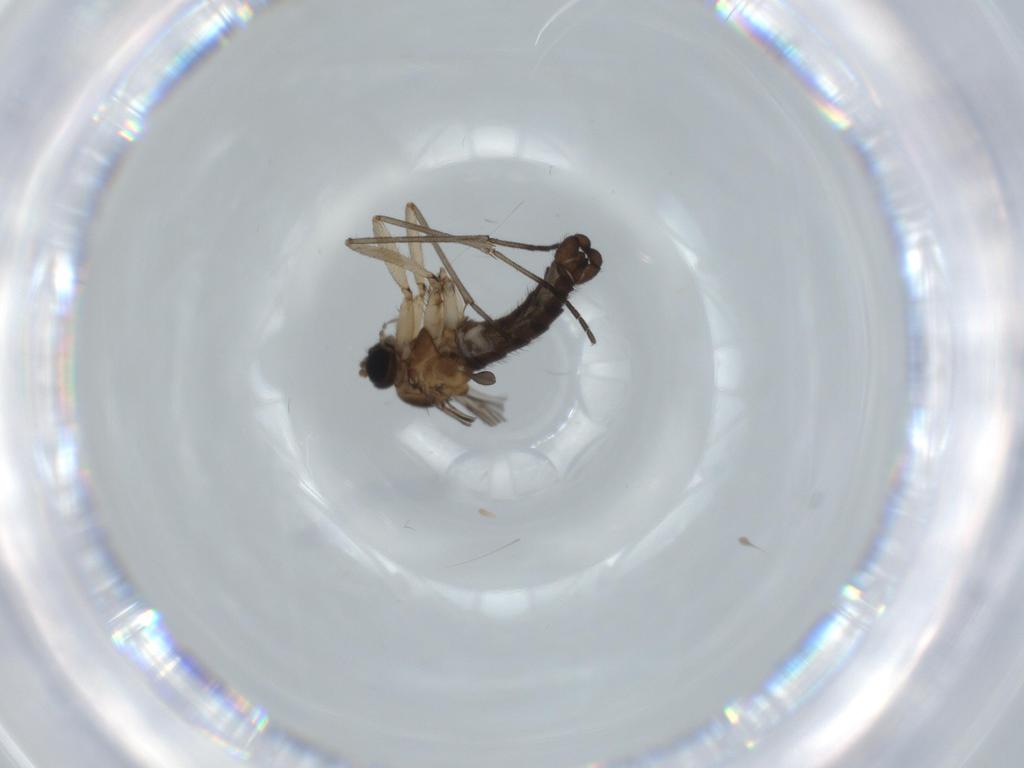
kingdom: Animalia
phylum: Arthropoda
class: Insecta
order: Diptera
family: Sciaridae
